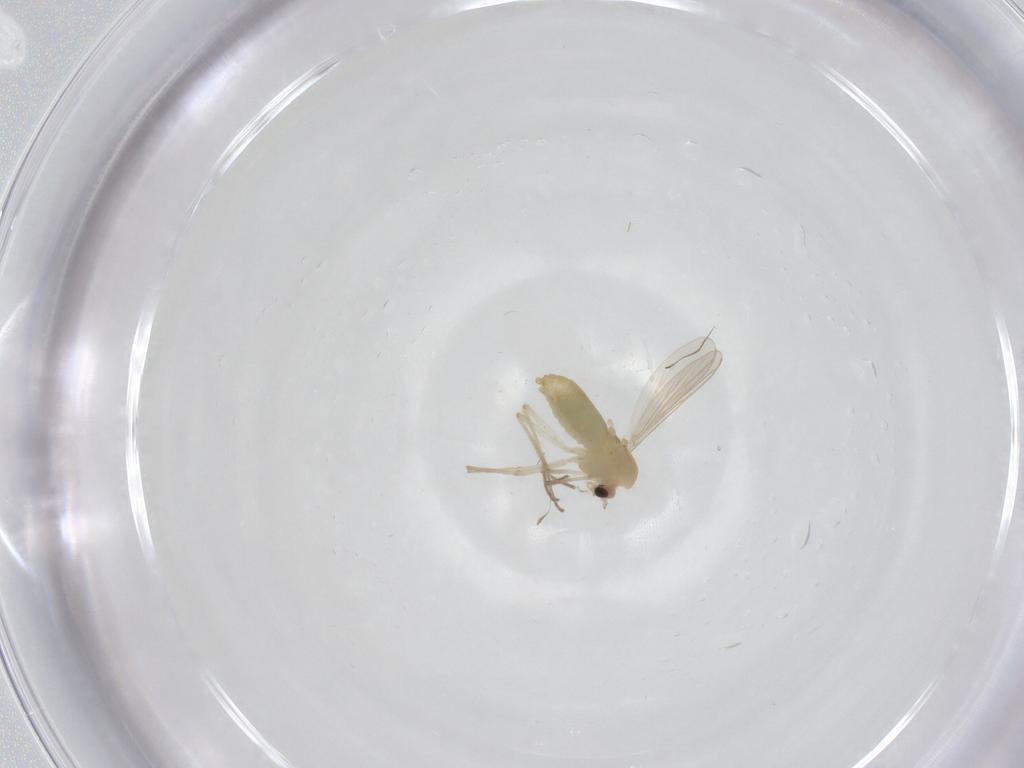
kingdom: Animalia
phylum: Arthropoda
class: Insecta
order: Diptera
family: Chironomidae
